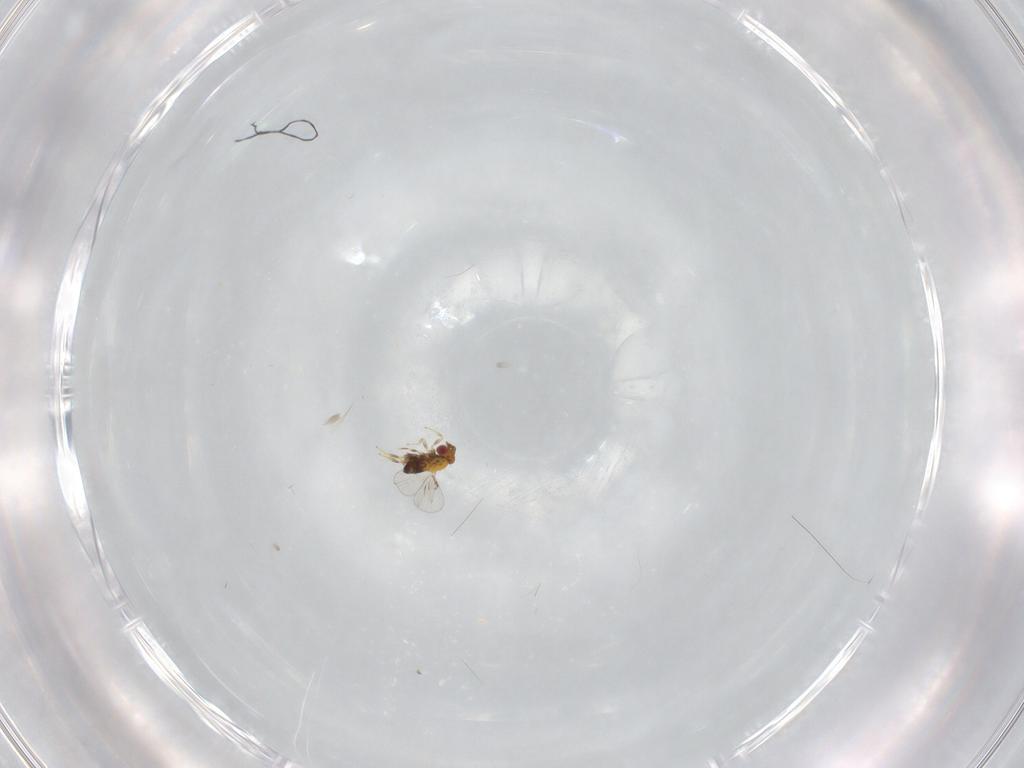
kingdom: Animalia
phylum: Arthropoda
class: Insecta
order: Hymenoptera
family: Trichogrammatidae
